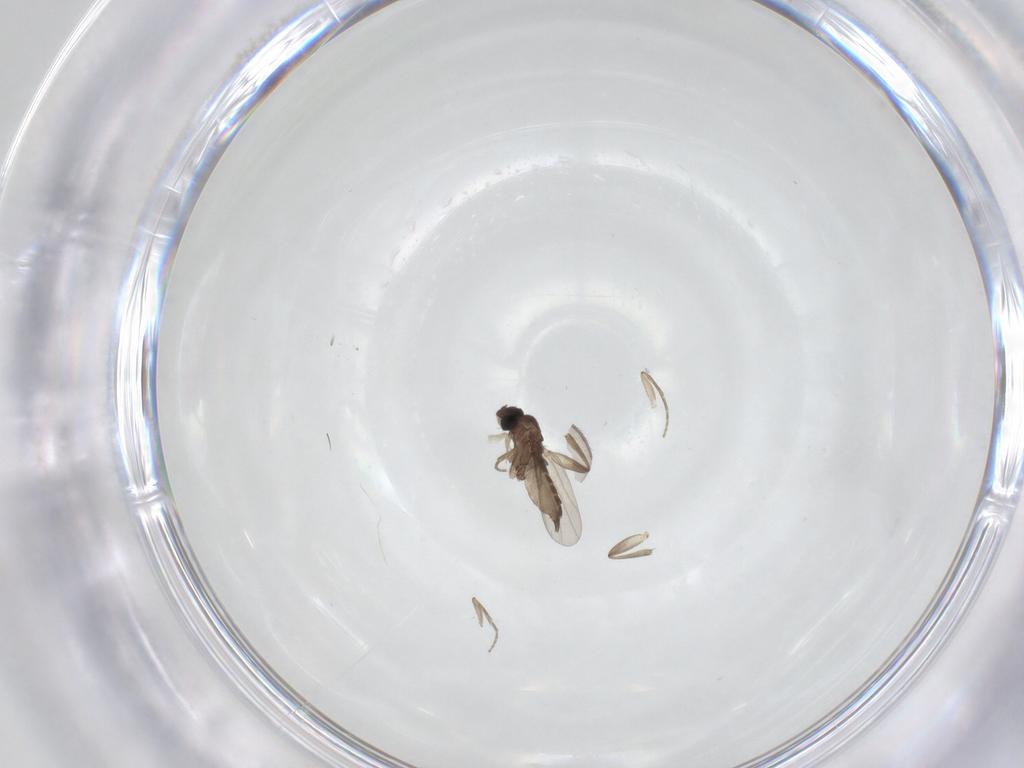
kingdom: Animalia
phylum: Arthropoda
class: Insecta
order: Diptera
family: Phoridae
